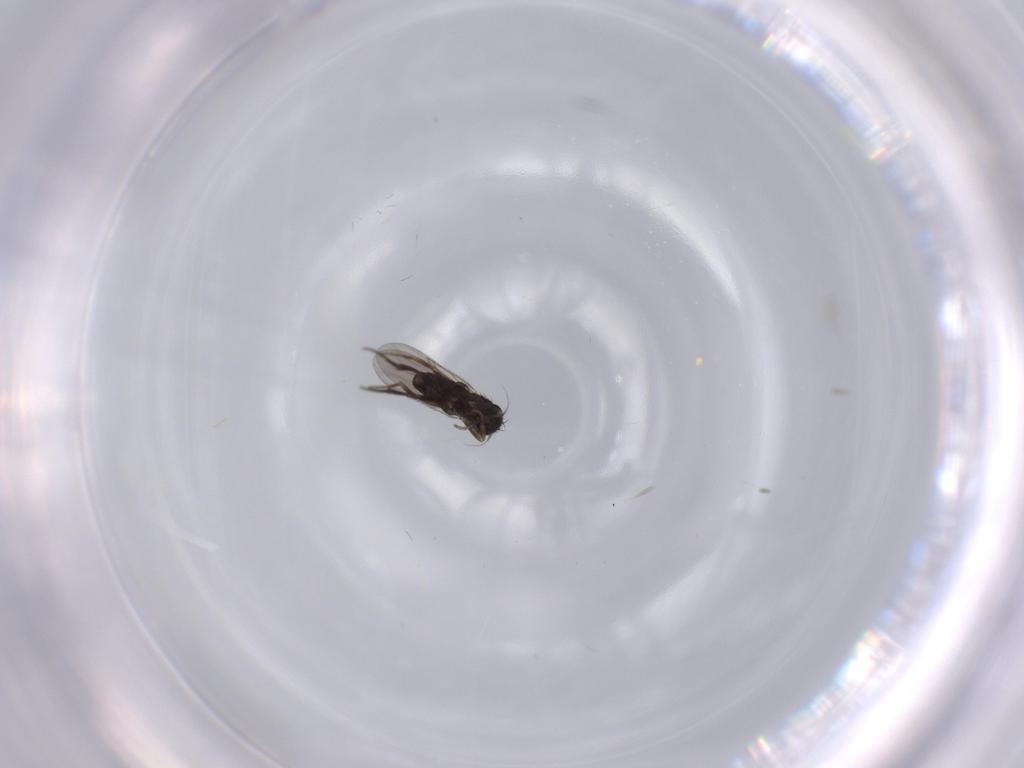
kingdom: Animalia
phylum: Arthropoda
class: Insecta
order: Diptera
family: Phoridae
